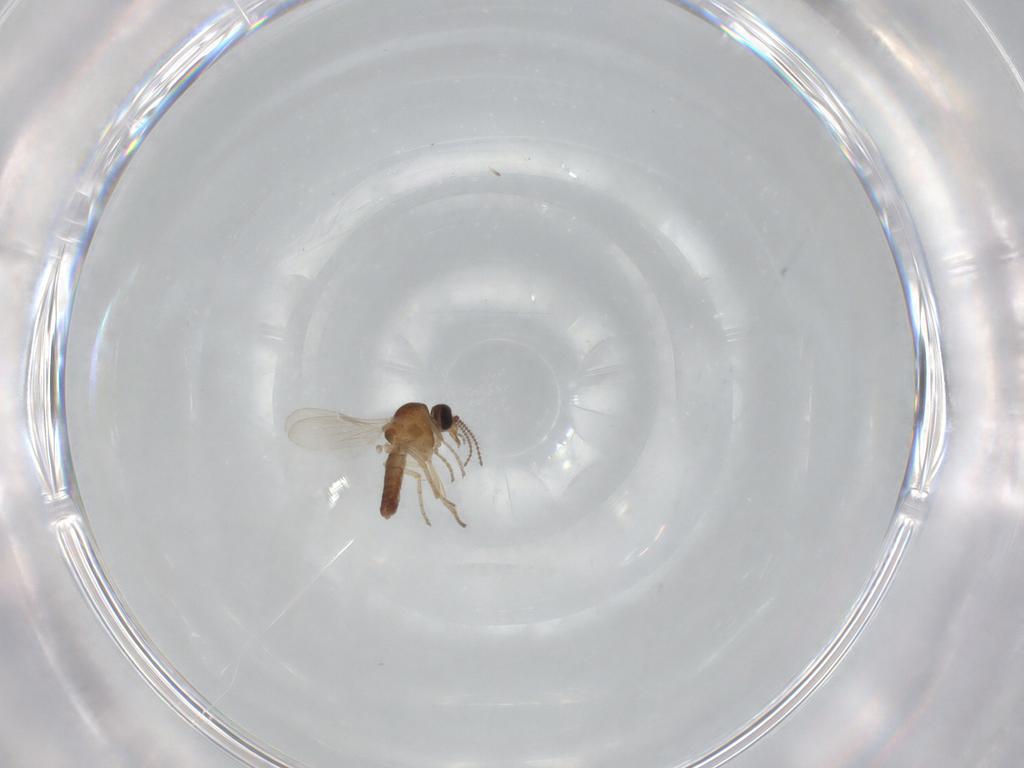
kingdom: Animalia
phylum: Arthropoda
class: Insecta
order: Diptera
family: Ceratopogonidae
